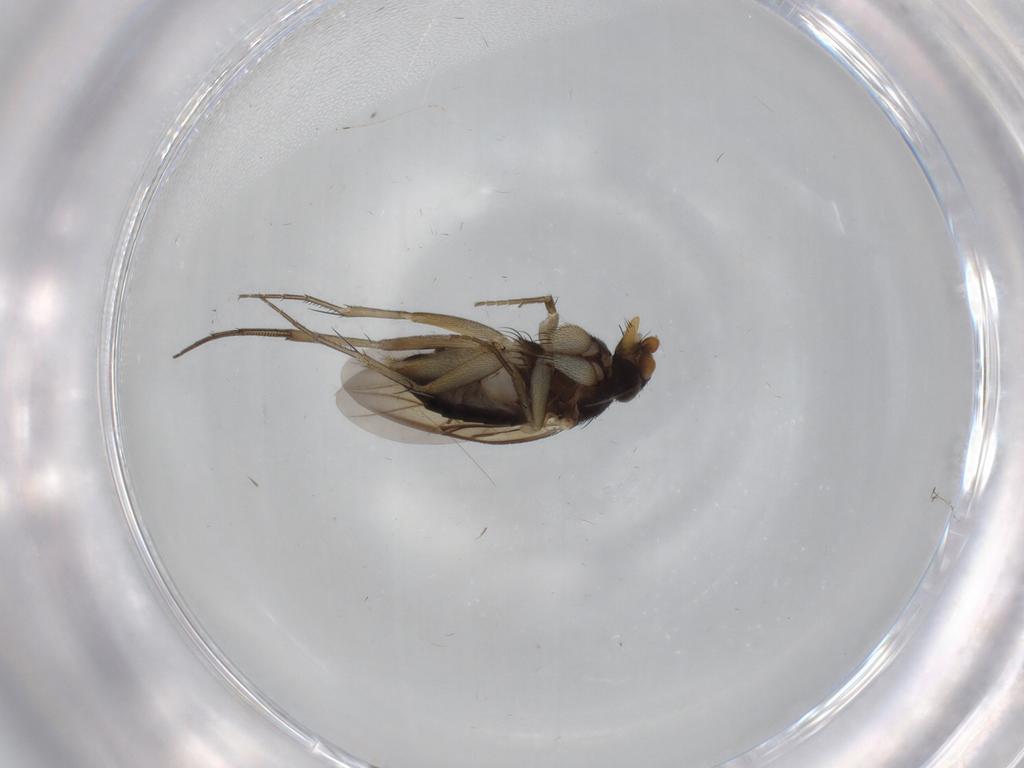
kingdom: Animalia
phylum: Arthropoda
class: Insecta
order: Diptera
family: Phoridae
